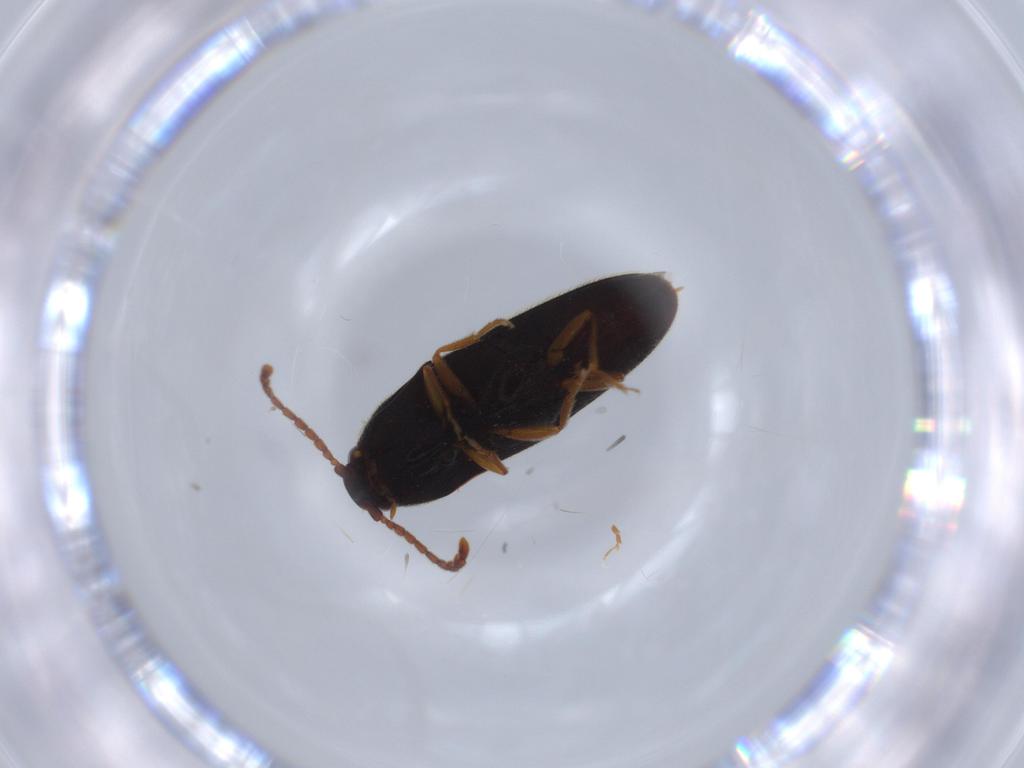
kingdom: Animalia
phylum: Arthropoda
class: Insecta
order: Coleoptera
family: Elateridae
